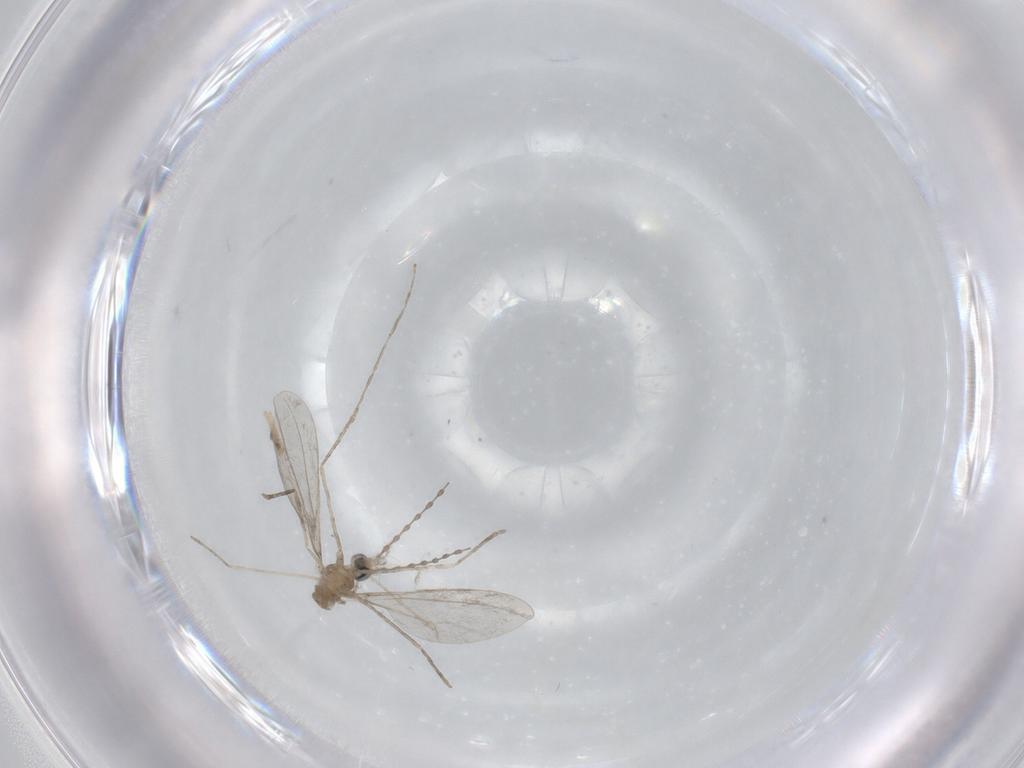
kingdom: Animalia
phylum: Arthropoda
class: Insecta
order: Diptera
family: Cecidomyiidae
